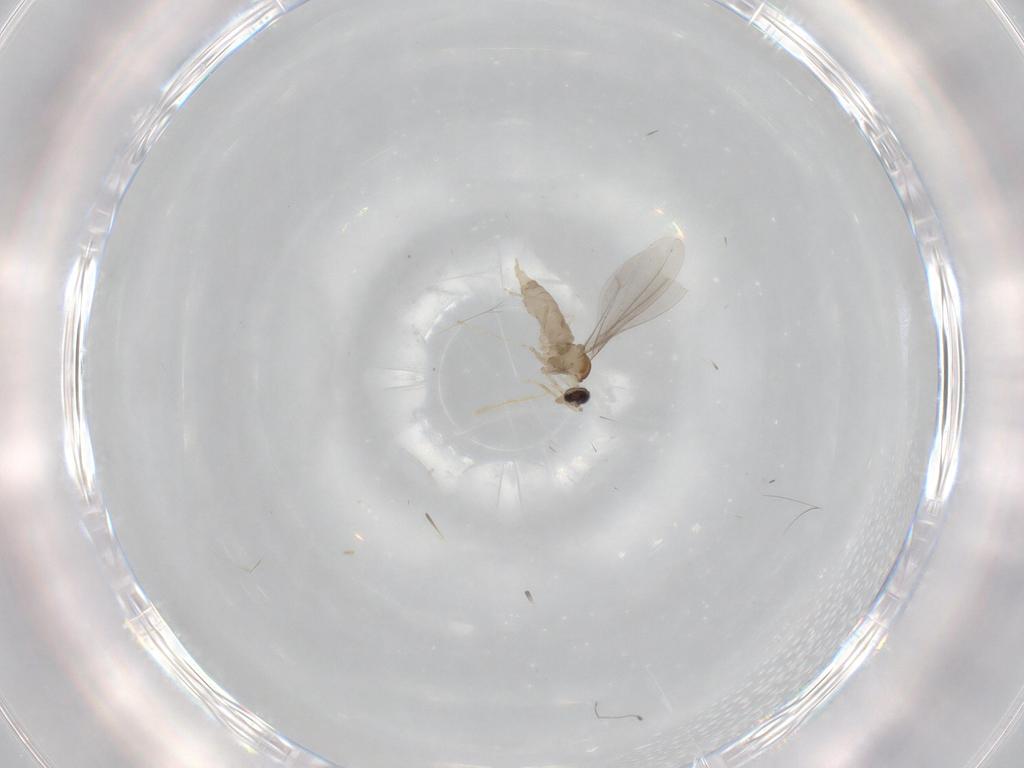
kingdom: Animalia
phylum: Arthropoda
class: Insecta
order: Diptera
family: Cecidomyiidae
